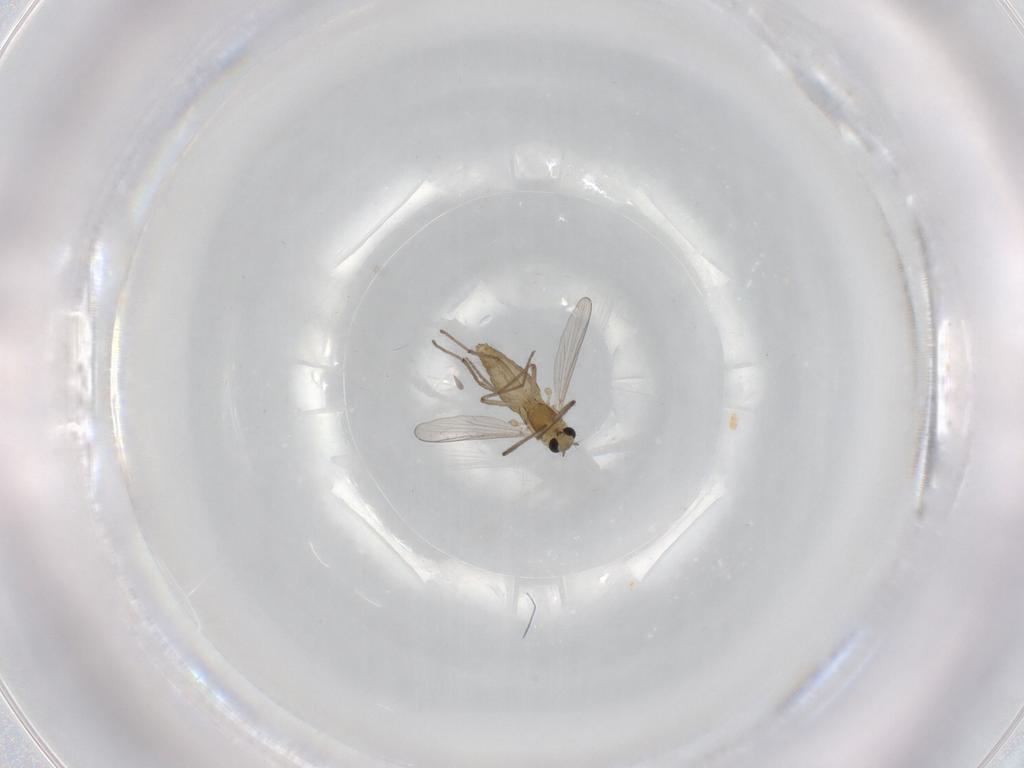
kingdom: Animalia
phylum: Arthropoda
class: Insecta
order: Diptera
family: Chironomidae
